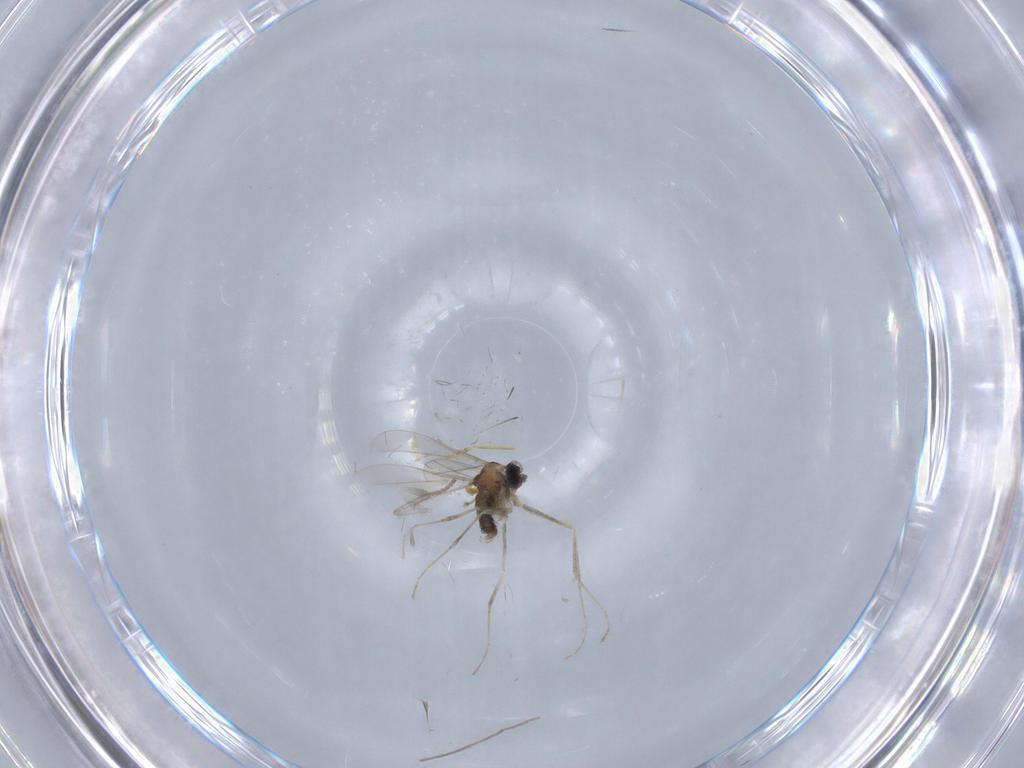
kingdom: Animalia
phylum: Arthropoda
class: Insecta
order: Diptera
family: Cecidomyiidae
